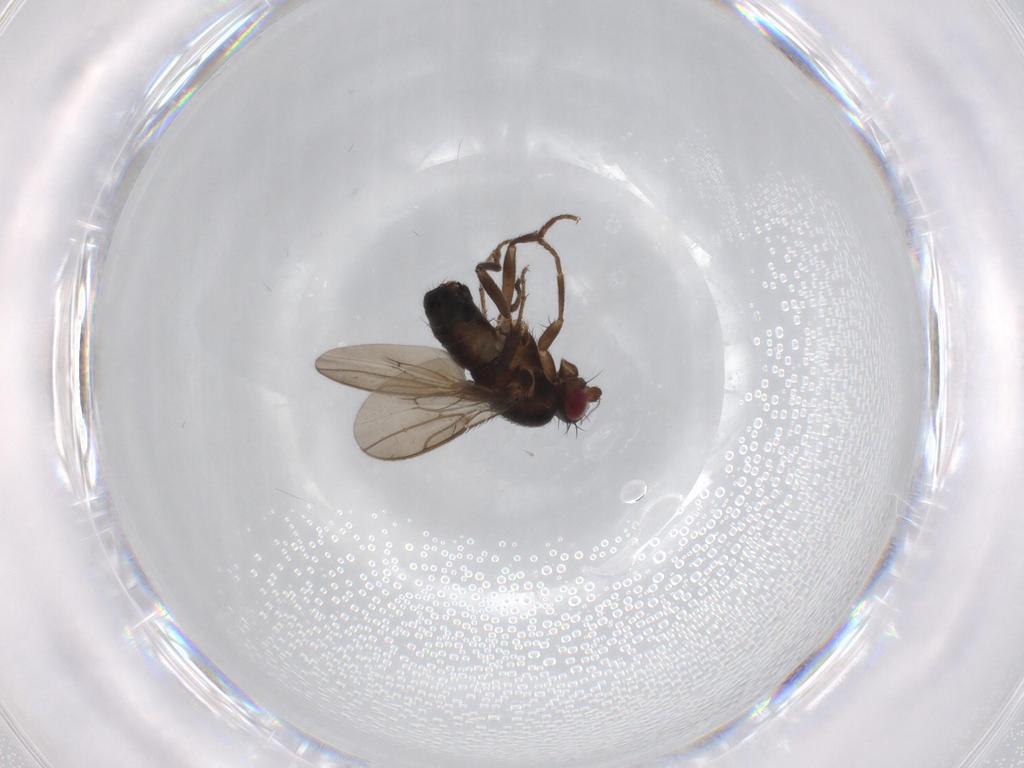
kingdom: Animalia
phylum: Arthropoda
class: Insecta
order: Diptera
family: Sphaeroceridae
